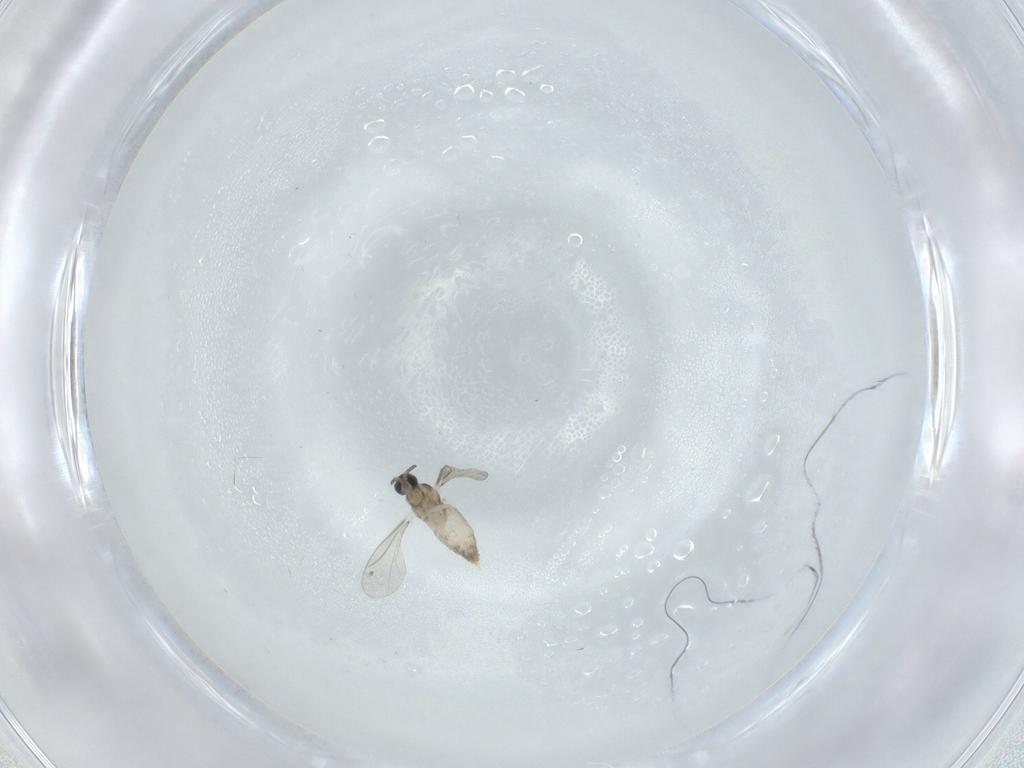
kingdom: Animalia
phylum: Arthropoda
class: Insecta
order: Diptera
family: Cecidomyiidae
